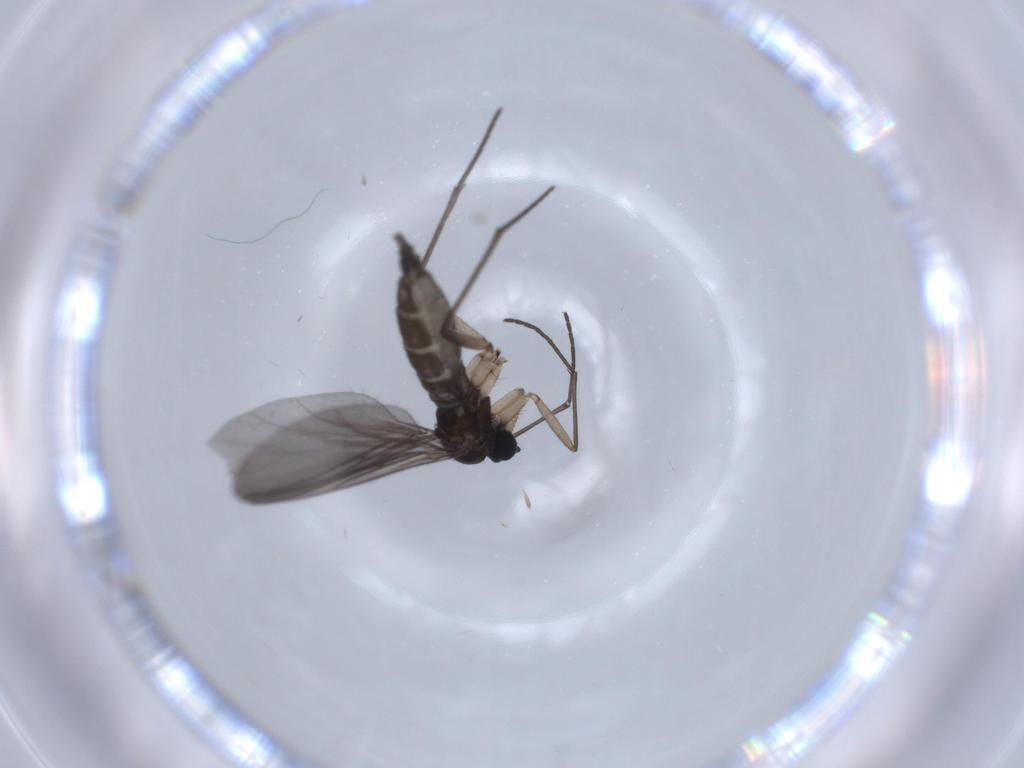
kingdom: Animalia
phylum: Arthropoda
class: Insecta
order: Diptera
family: Sciaridae
